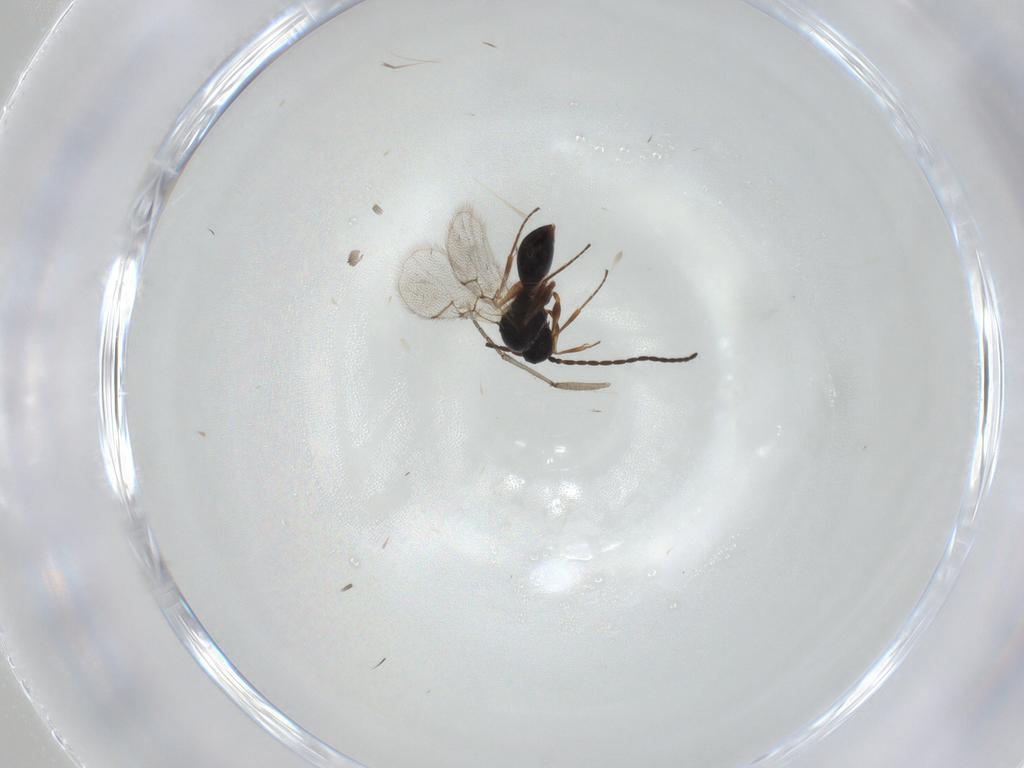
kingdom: Animalia
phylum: Arthropoda
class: Insecta
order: Hymenoptera
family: Figitidae
